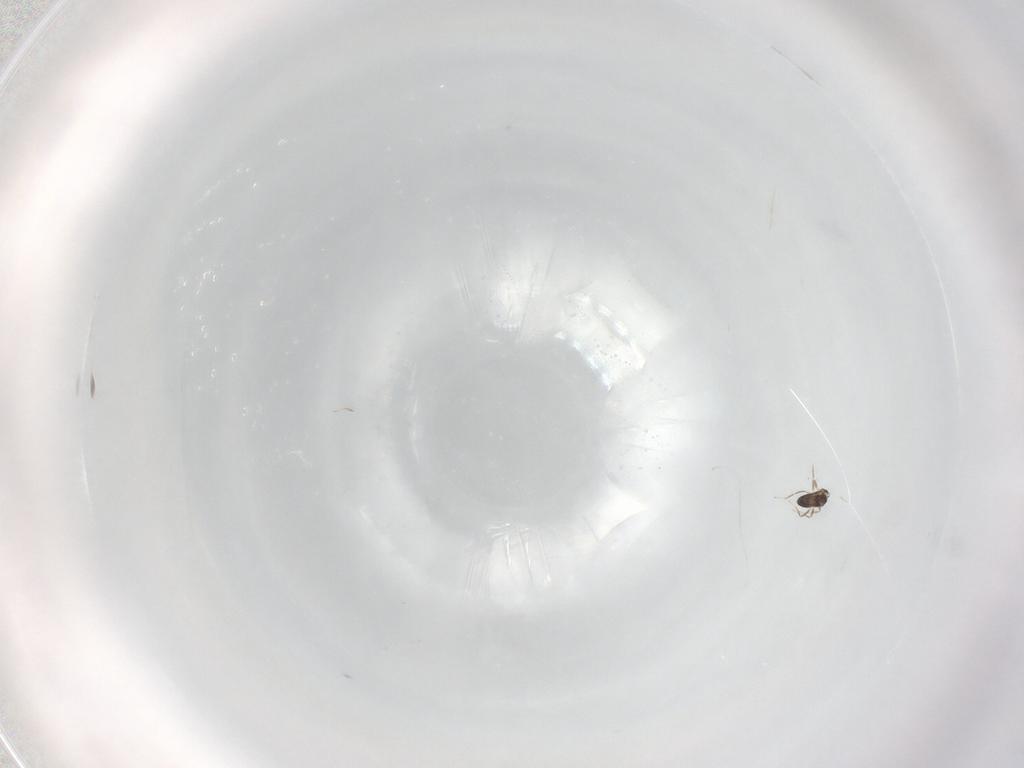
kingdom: Animalia
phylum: Arthropoda
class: Insecta
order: Hymenoptera
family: Mymaridae
